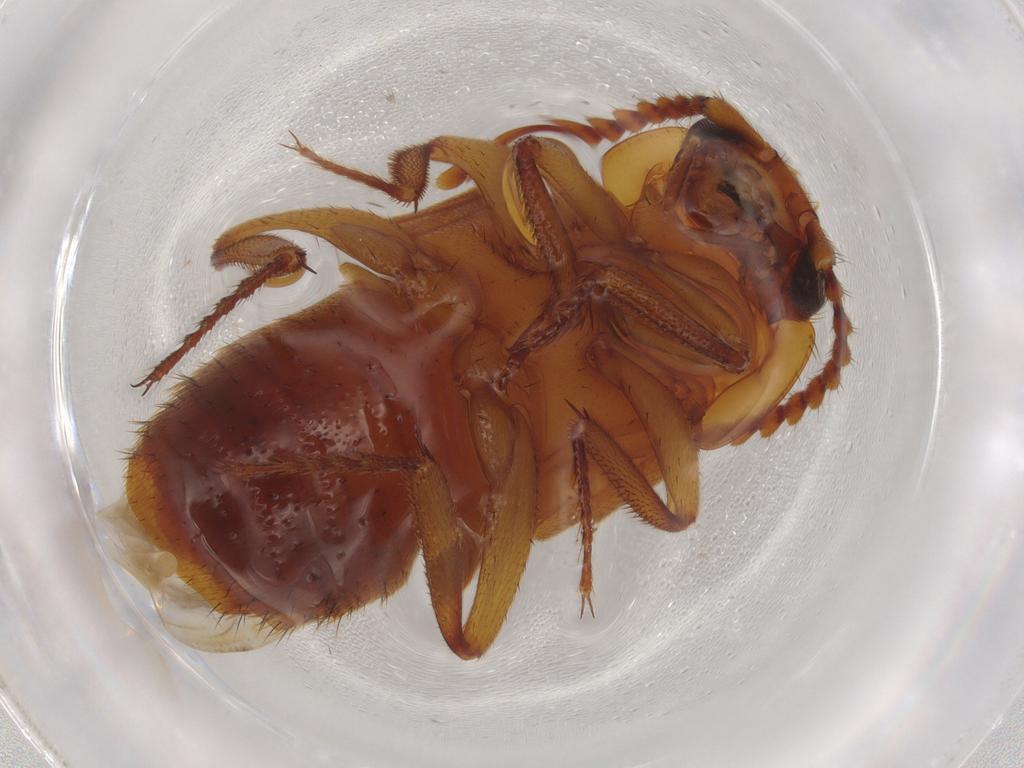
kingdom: Animalia
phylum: Arthropoda
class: Insecta
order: Coleoptera
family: Staphylinidae
